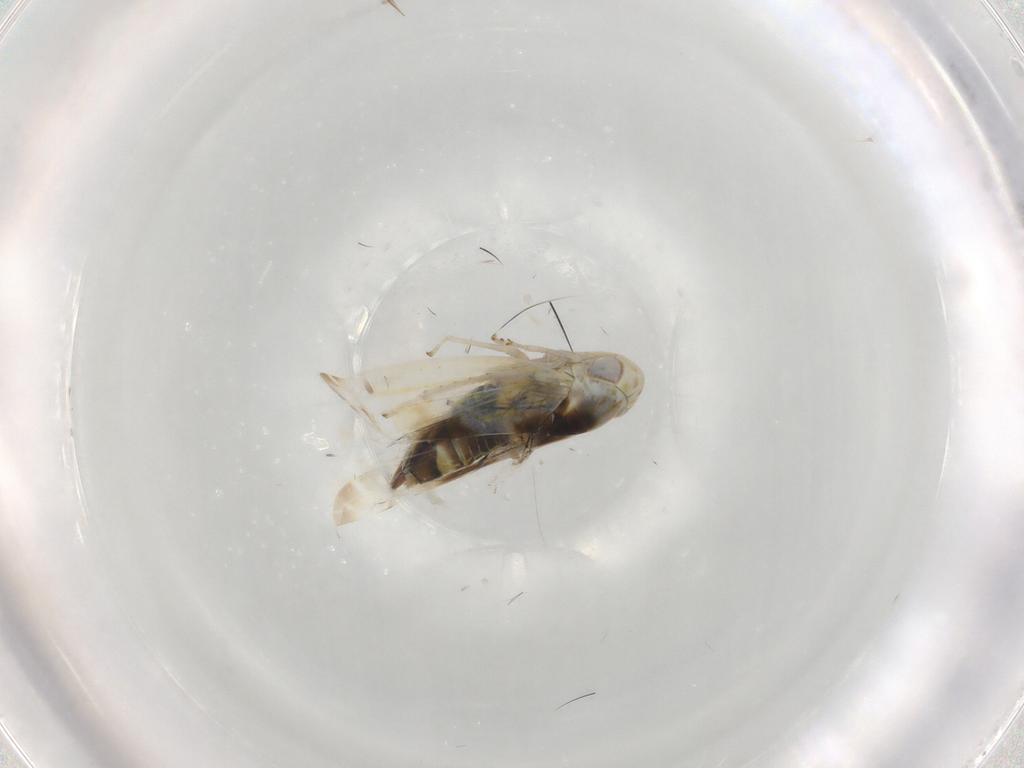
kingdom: Animalia
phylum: Arthropoda
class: Insecta
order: Hemiptera
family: Cicadellidae
